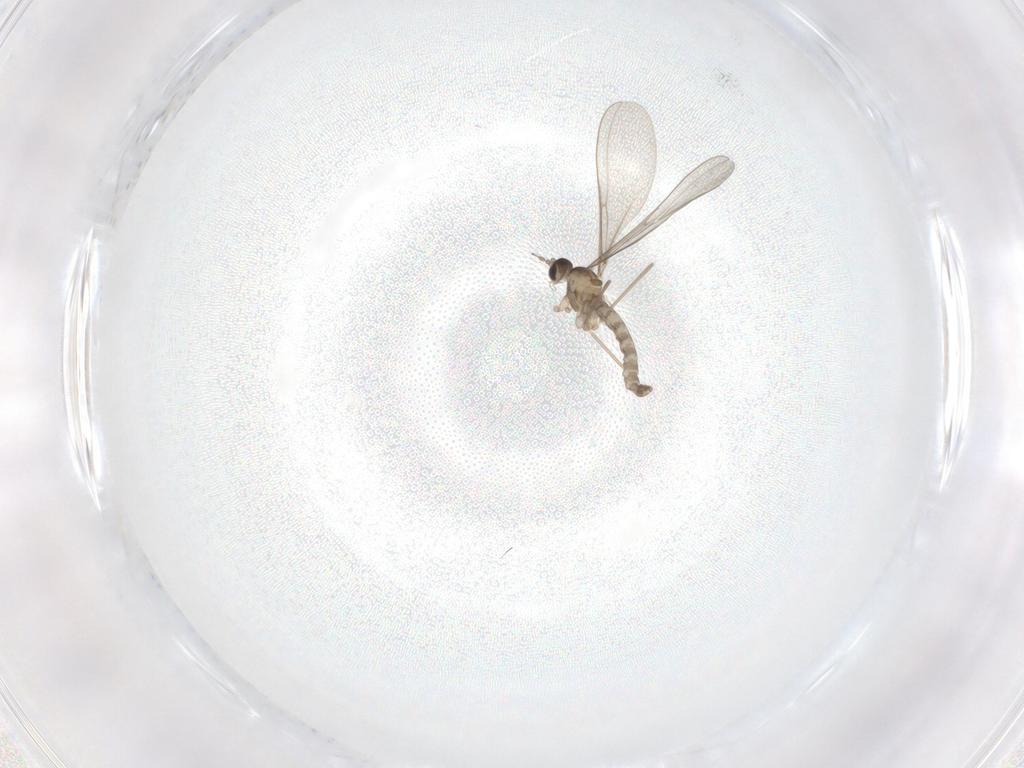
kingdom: Animalia
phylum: Arthropoda
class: Insecta
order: Diptera
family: Cecidomyiidae
